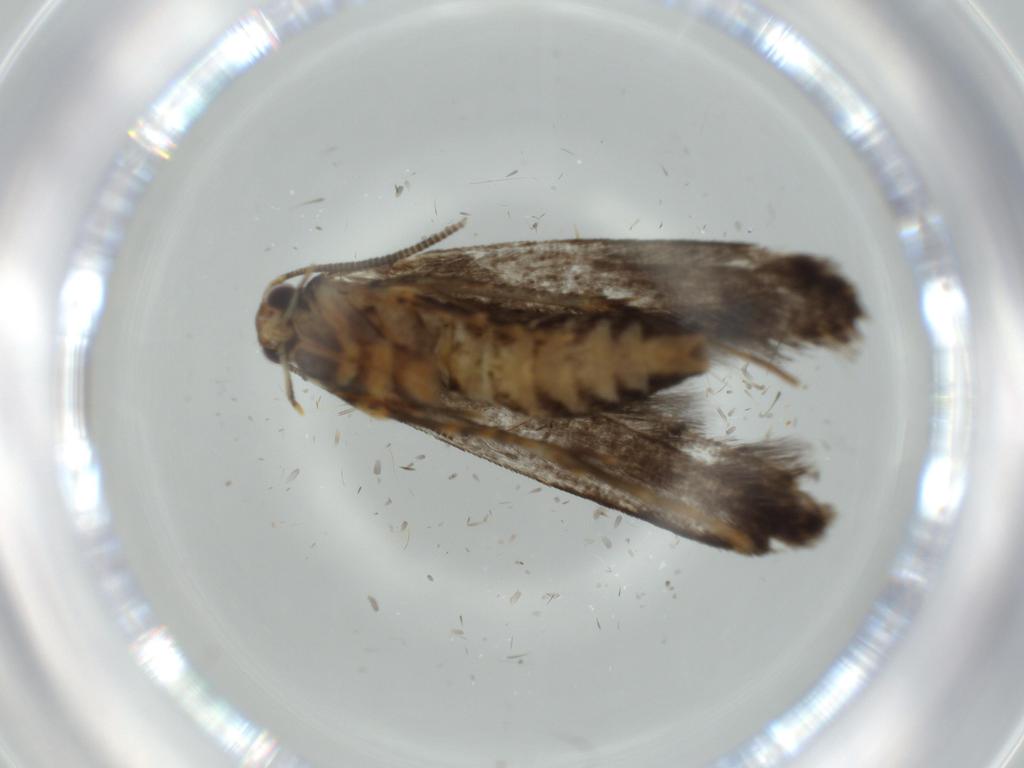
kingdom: Animalia
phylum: Arthropoda
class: Insecta
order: Lepidoptera
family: Tineidae
